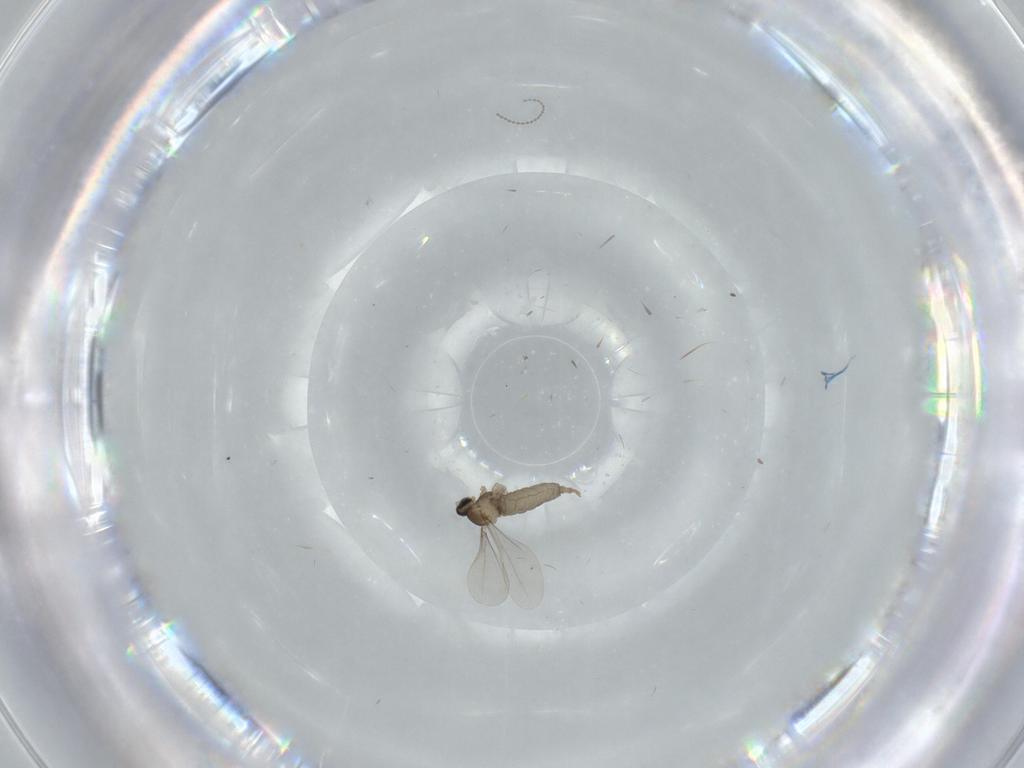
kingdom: Animalia
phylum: Arthropoda
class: Insecta
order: Diptera
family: Cecidomyiidae
